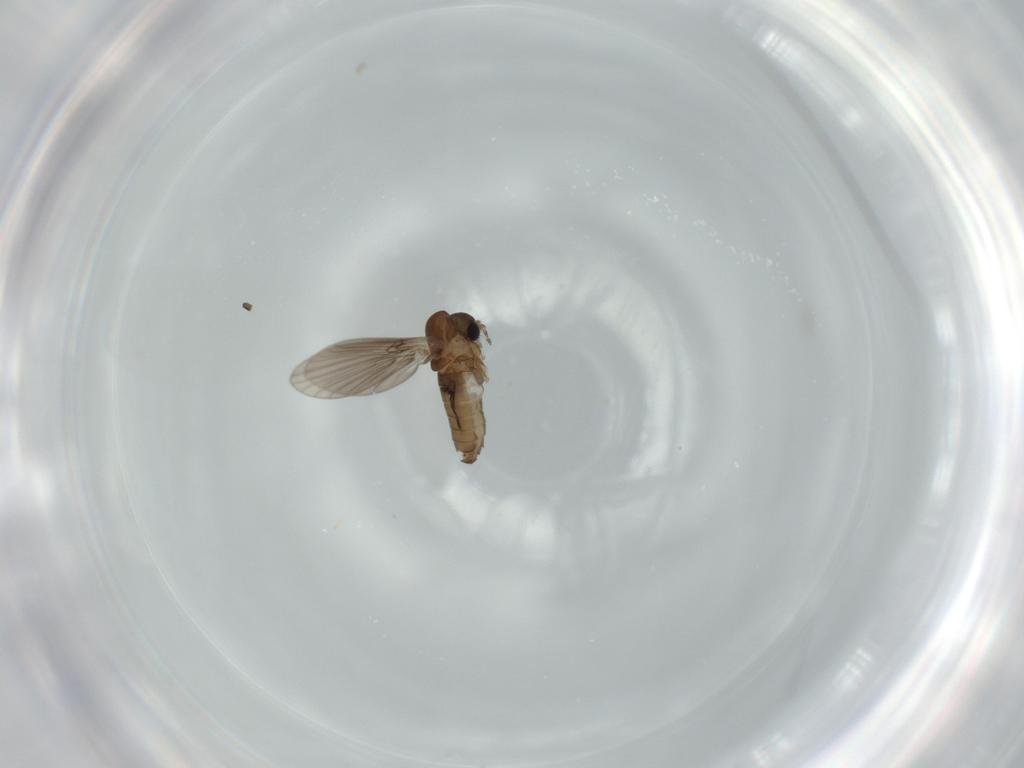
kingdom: Animalia
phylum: Arthropoda
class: Insecta
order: Diptera
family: Psychodidae
